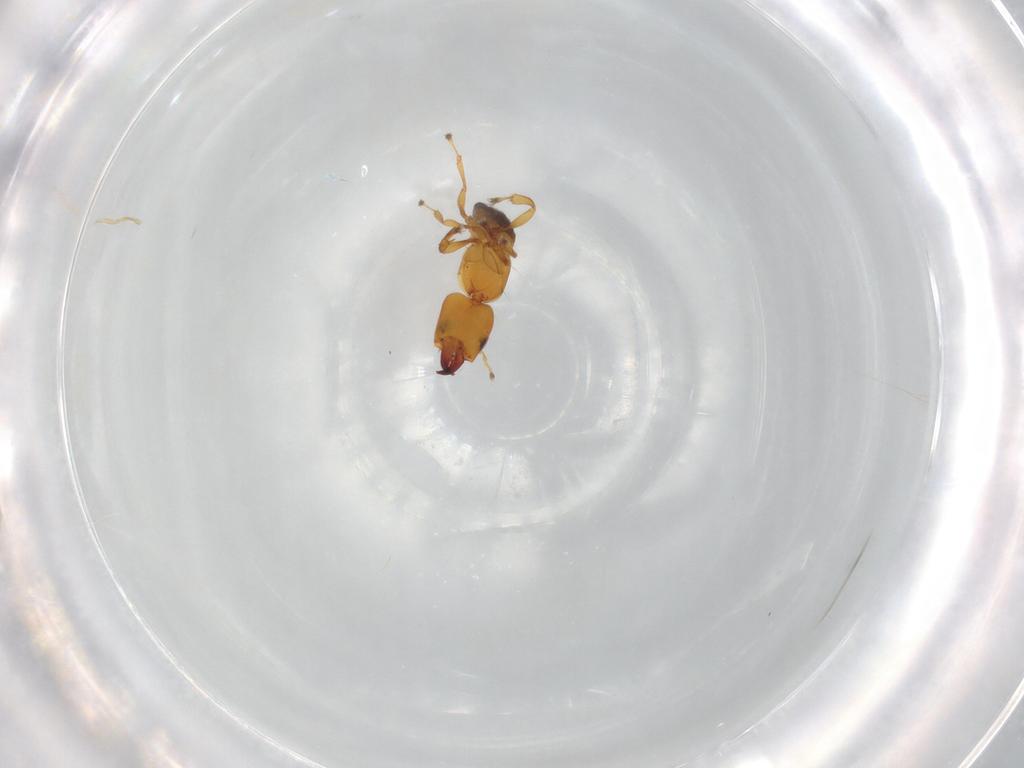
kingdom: Animalia
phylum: Arthropoda
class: Insecta
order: Hymenoptera
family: Pteromalidae
